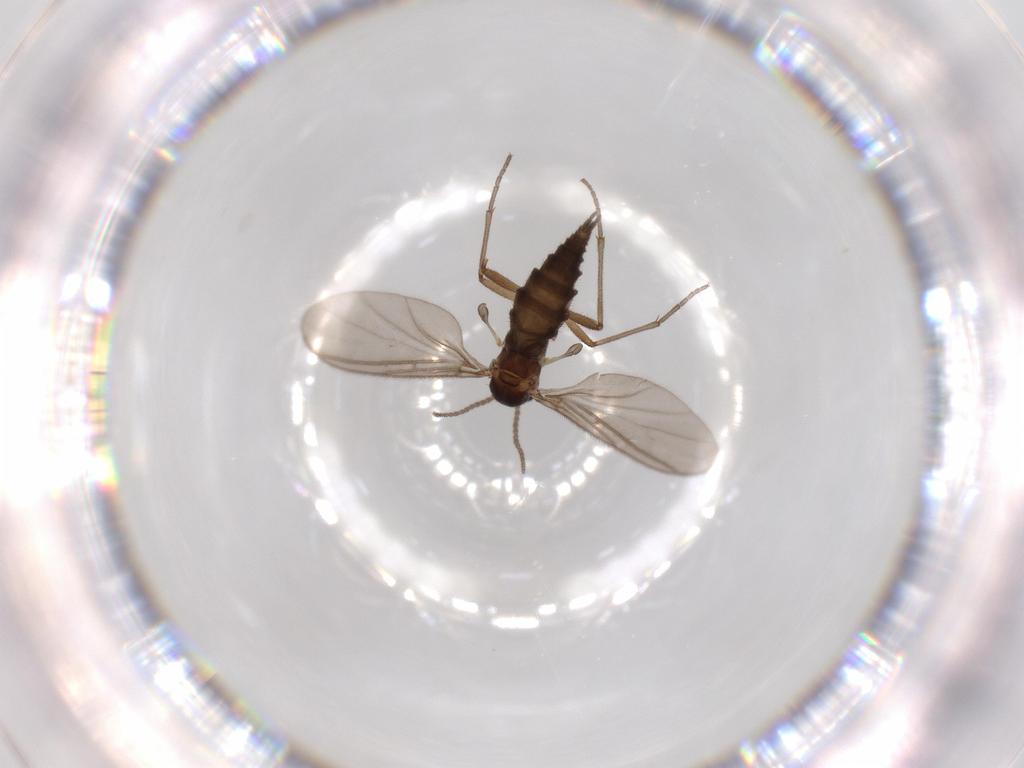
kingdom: Animalia
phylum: Arthropoda
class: Insecta
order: Diptera
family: Sciaridae
